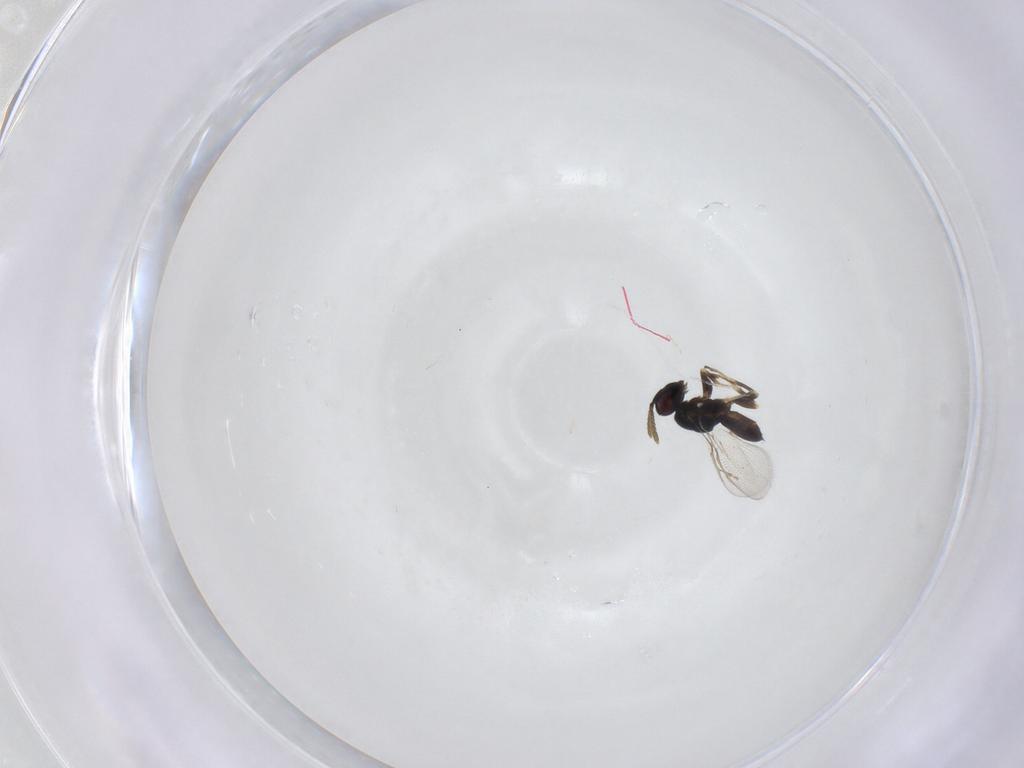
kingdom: Animalia
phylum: Arthropoda
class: Insecta
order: Hymenoptera
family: Pteromalidae
